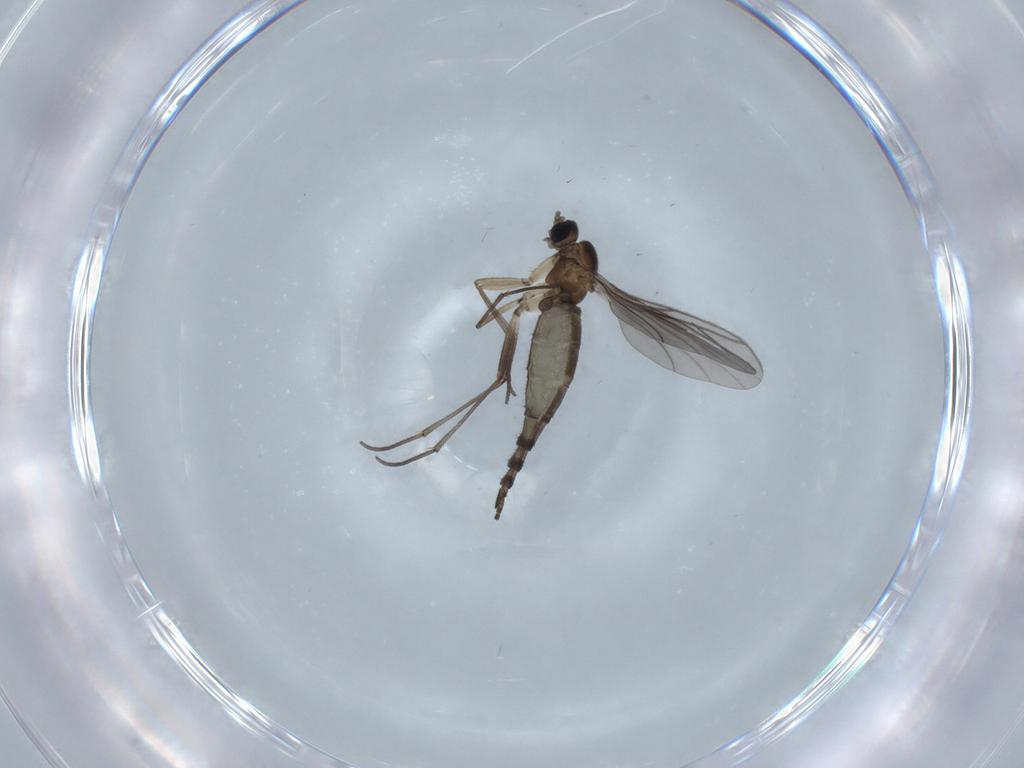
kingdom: Animalia
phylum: Arthropoda
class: Insecta
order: Diptera
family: Sciaridae
